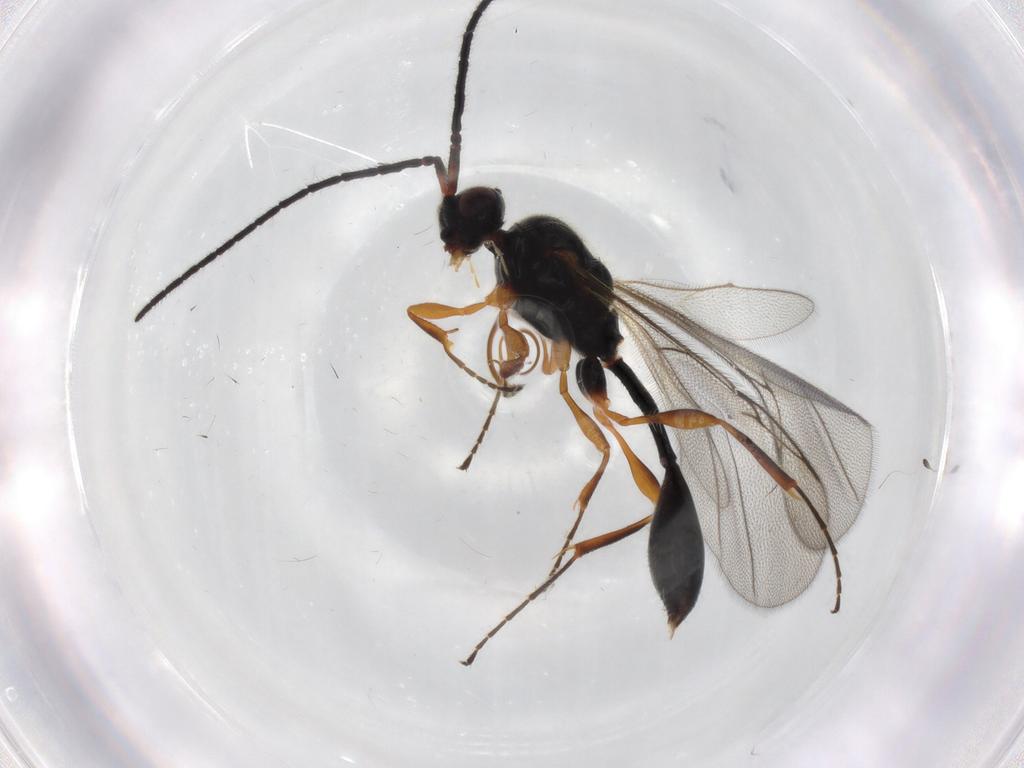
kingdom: Animalia
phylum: Arthropoda
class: Insecta
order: Hymenoptera
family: Diapriidae
